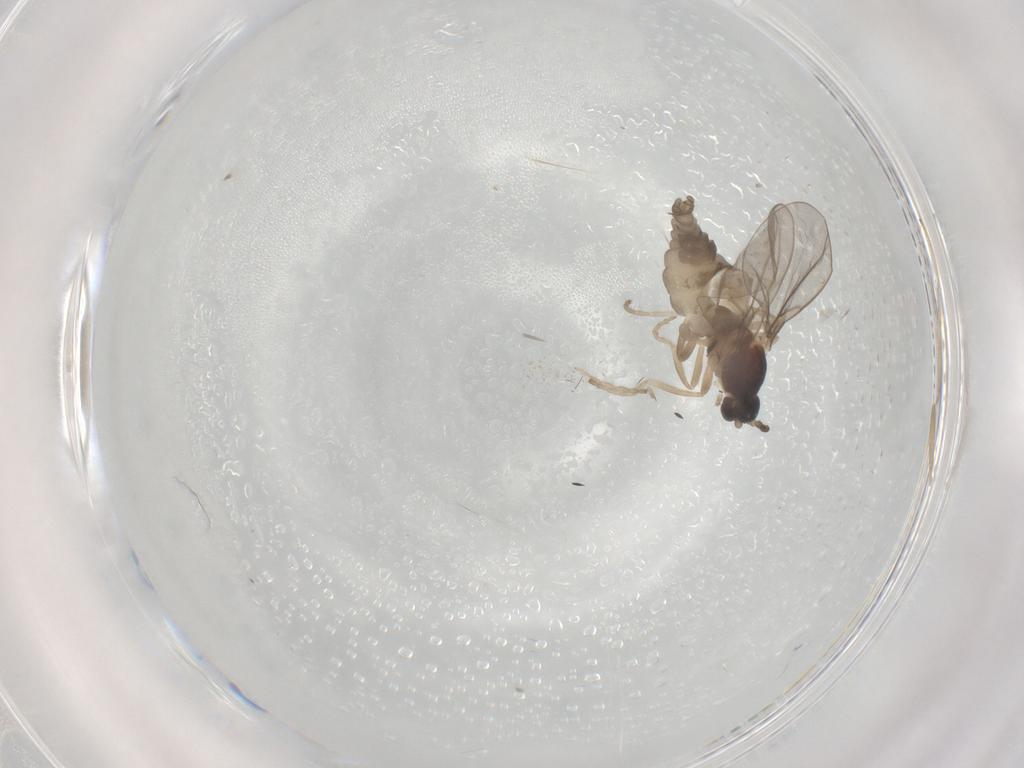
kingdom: Animalia
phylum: Arthropoda
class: Insecta
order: Diptera
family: Cecidomyiidae
